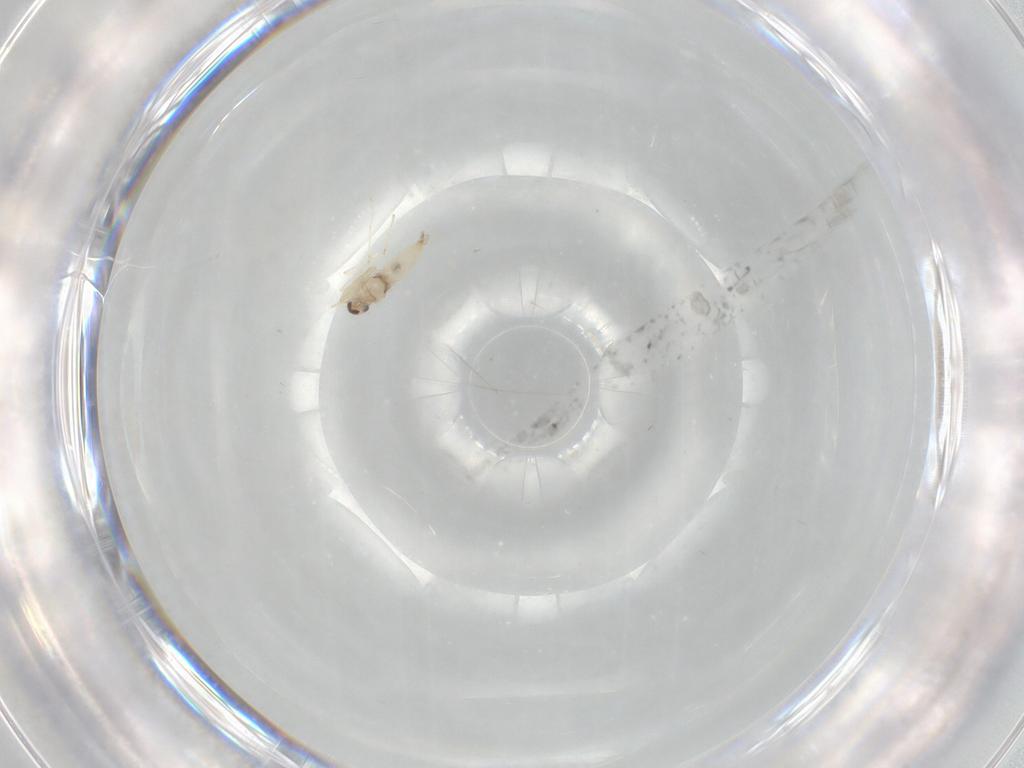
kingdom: Animalia
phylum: Arthropoda
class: Insecta
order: Diptera
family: Cecidomyiidae
